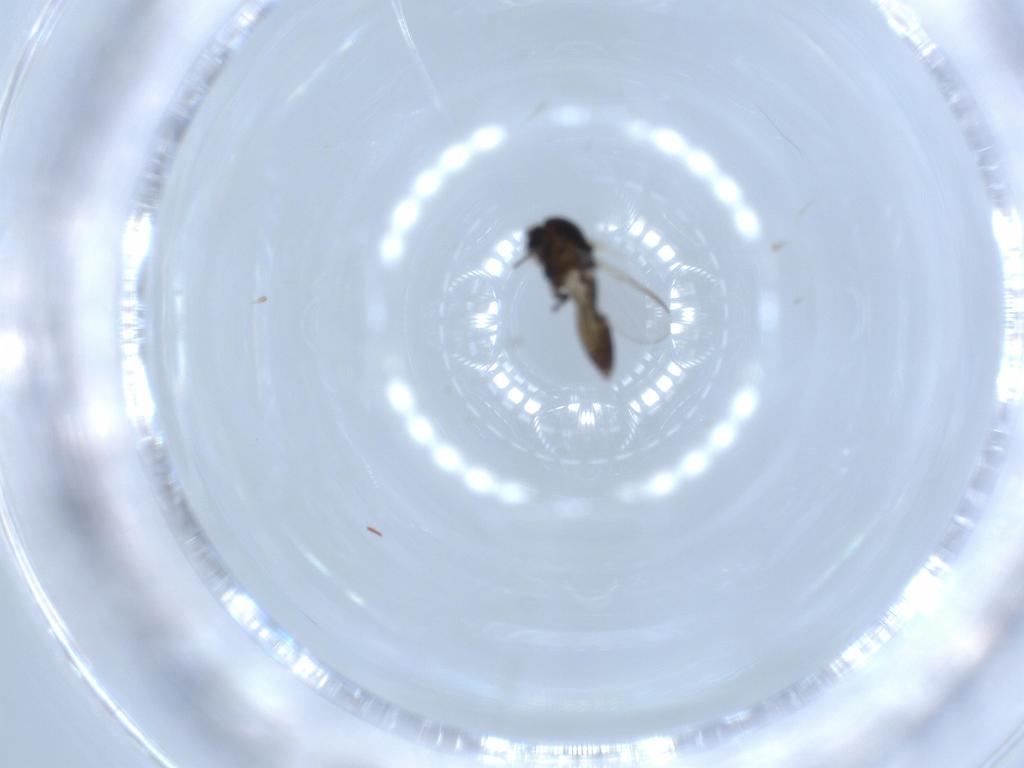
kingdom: Animalia
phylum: Arthropoda
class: Insecta
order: Diptera
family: Chironomidae
